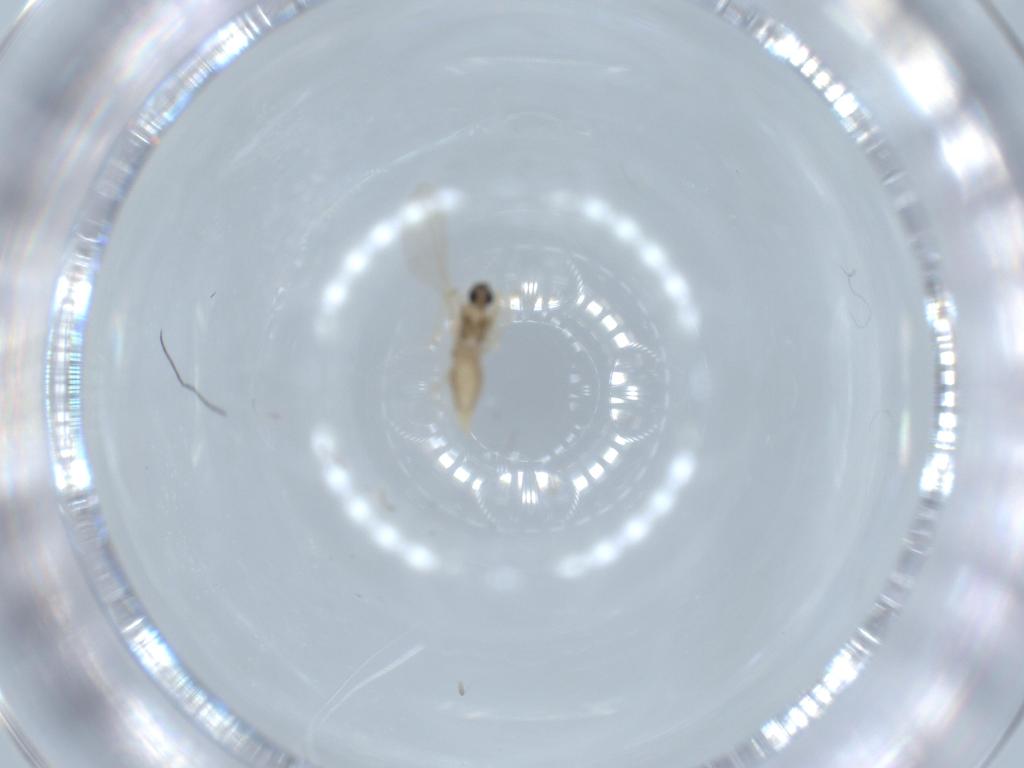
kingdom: Animalia
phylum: Arthropoda
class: Insecta
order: Diptera
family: Cecidomyiidae
